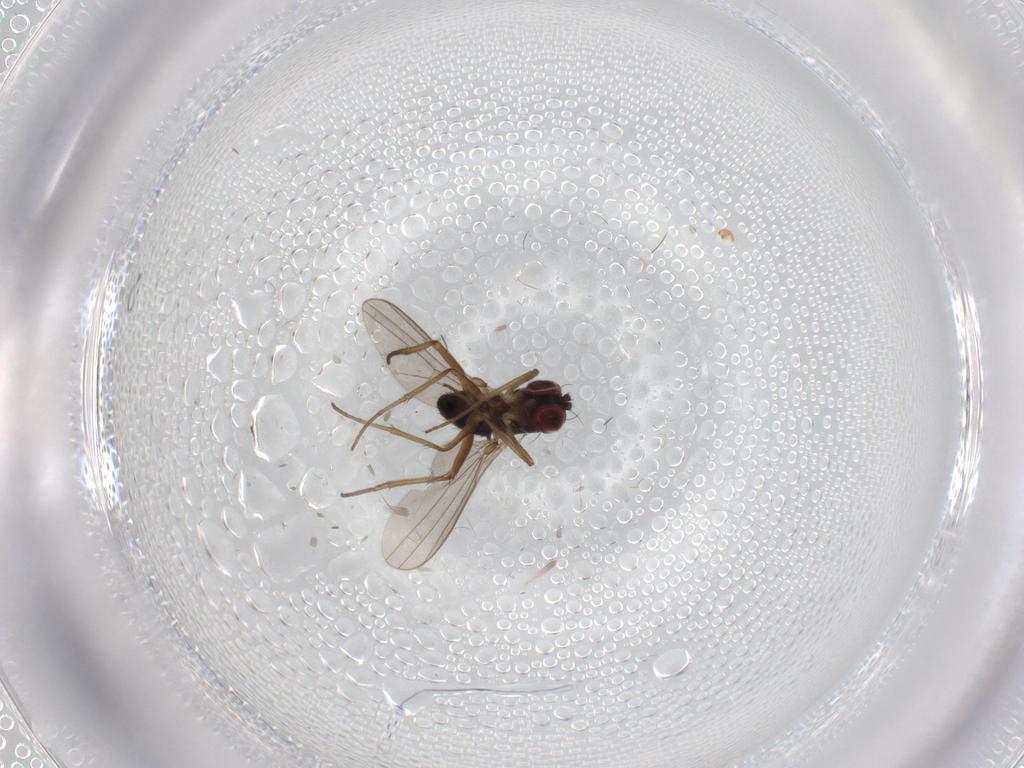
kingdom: Animalia
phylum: Arthropoda
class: Insecta
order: Diptera
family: Dolichopodidae
